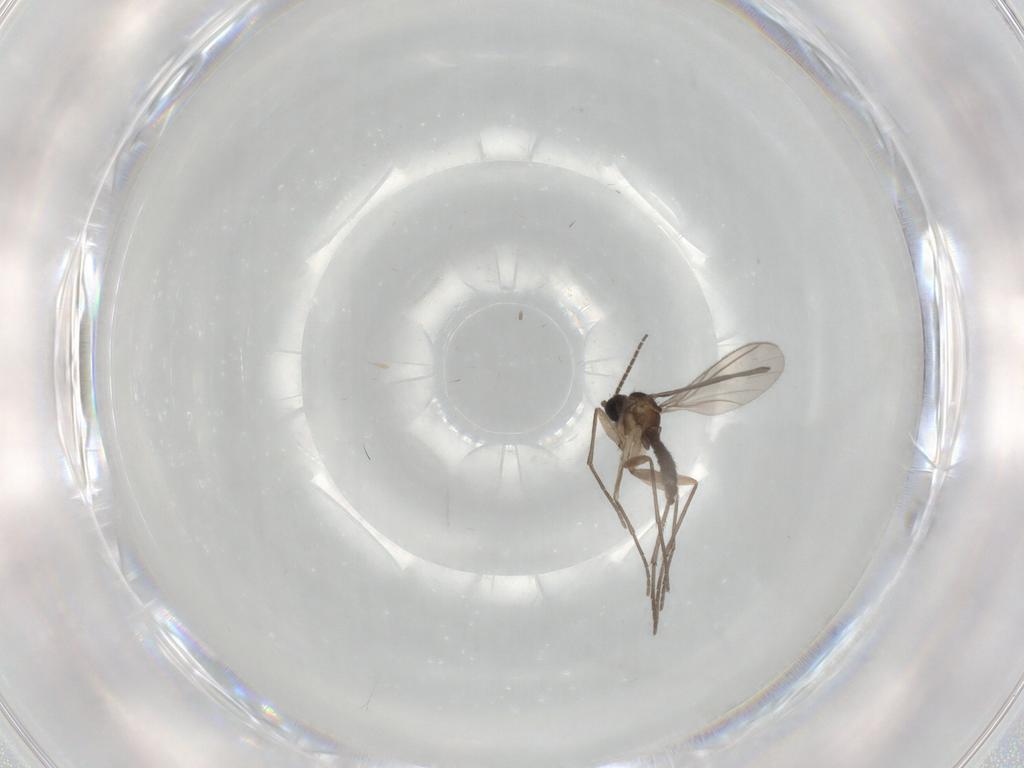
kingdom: Animalia
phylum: Arthropoda
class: Insecta
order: Diptera
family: Sciaridae
